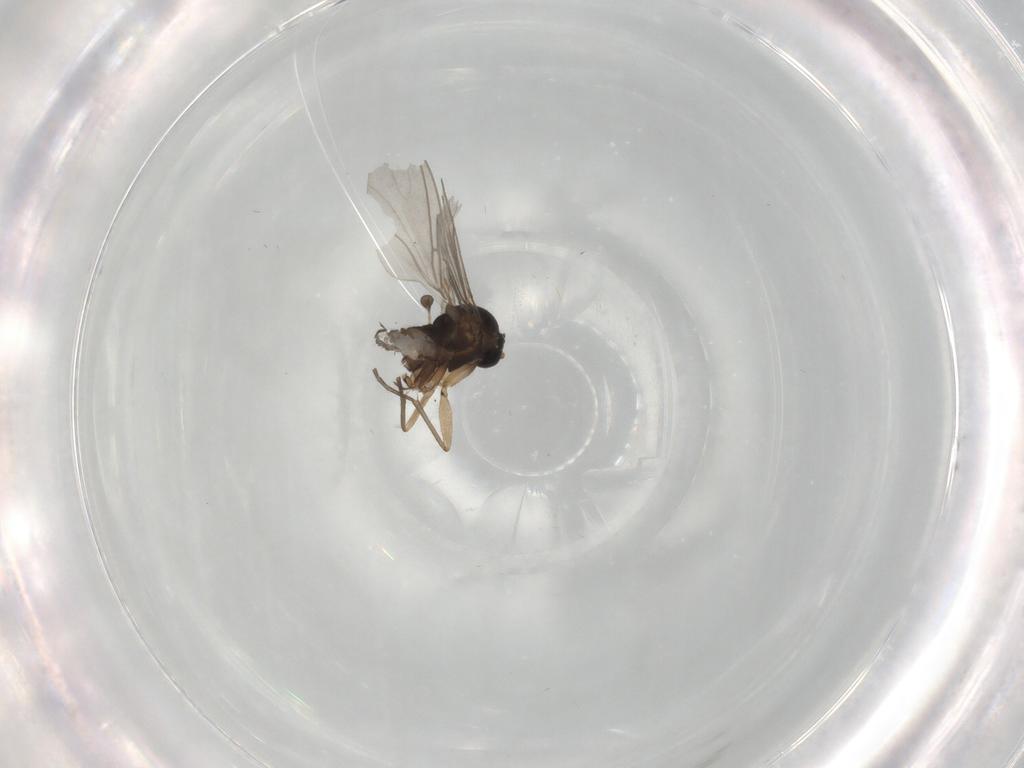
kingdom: Animalia
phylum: Arthropoda
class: Insecta
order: Diptera
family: Sciaridae
